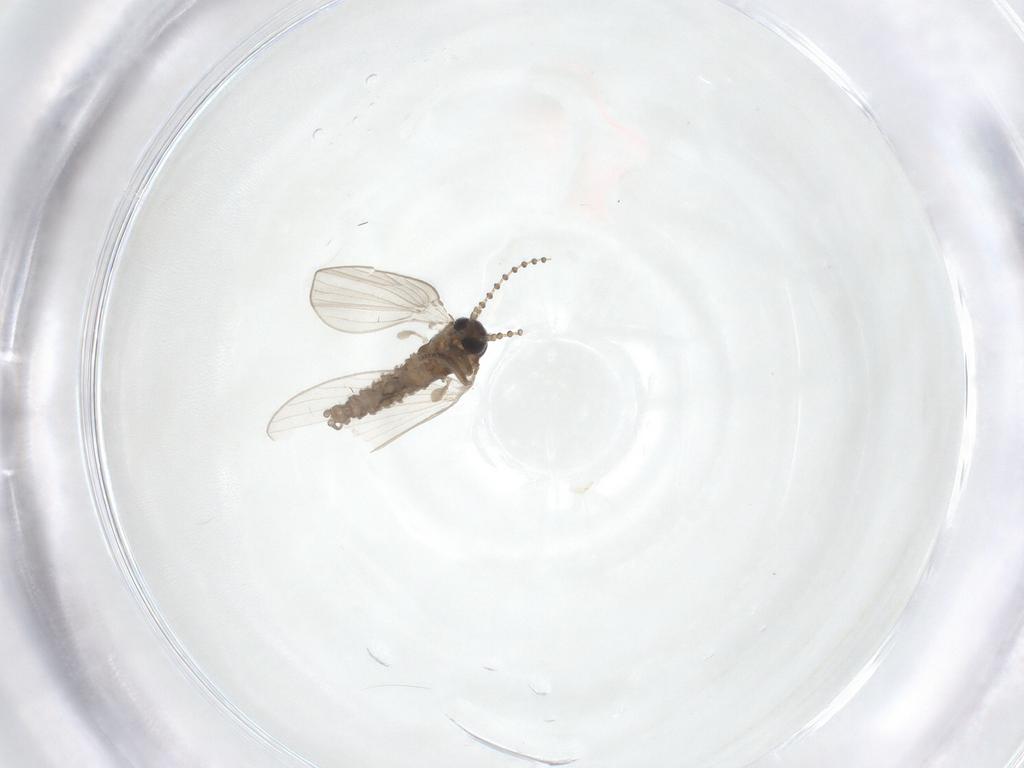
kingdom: Animalia
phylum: Arthropoda
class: Insecta
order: Diptera
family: Psychodidae
